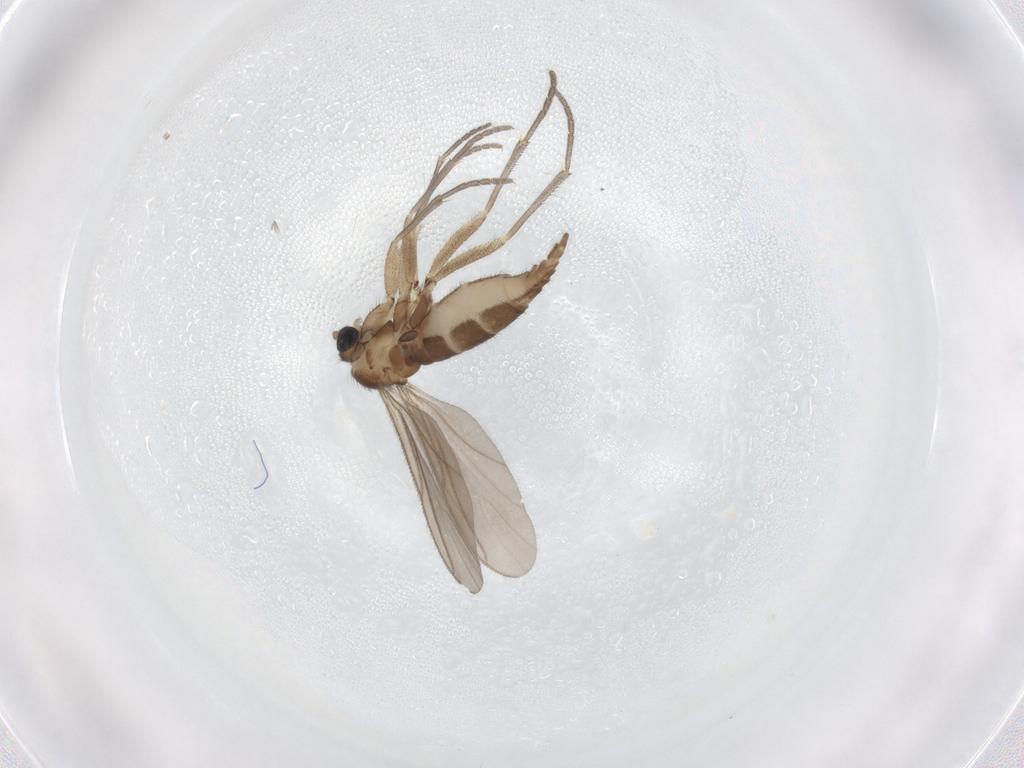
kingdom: Animalia
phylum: Arthropoda
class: Insecta
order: Diptera
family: Sciaridae
